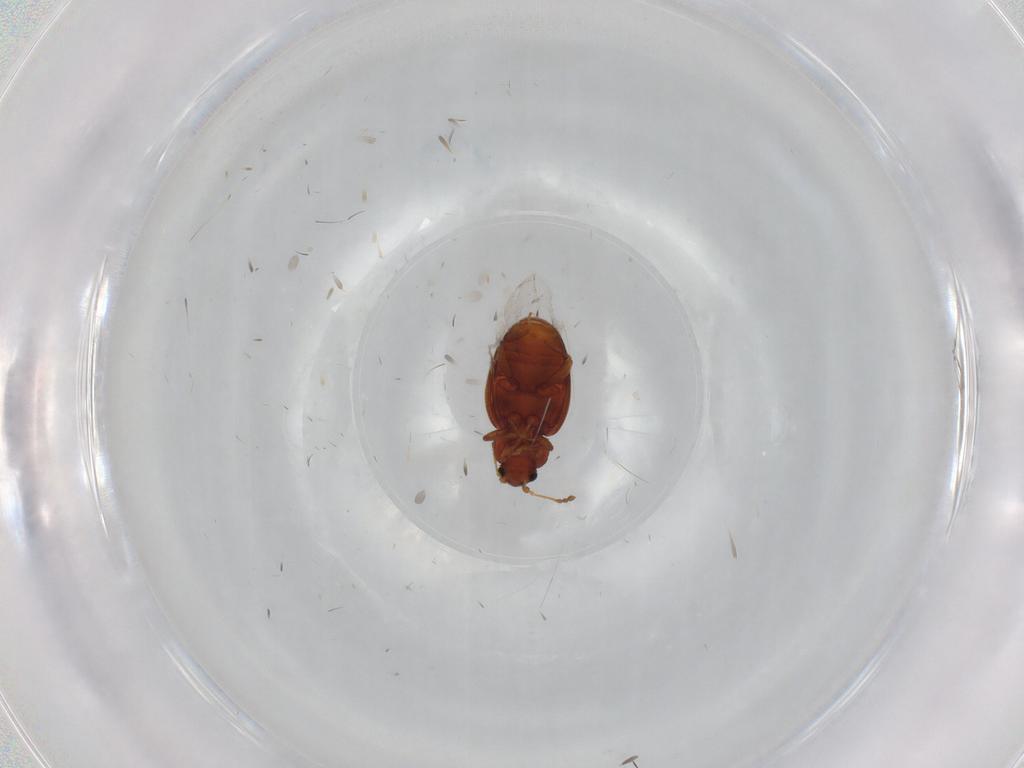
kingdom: Animalia
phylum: Arthropoda
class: Insecta
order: Coleoptera
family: Latridiidae
